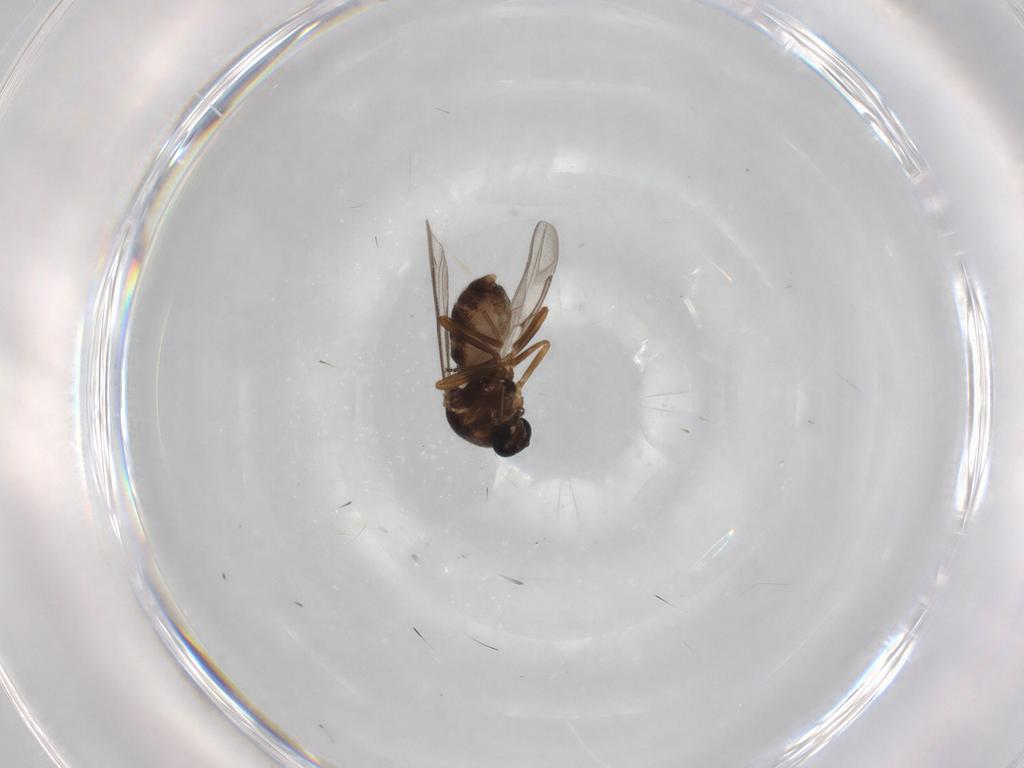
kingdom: Animalia
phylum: Arthropoda
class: Insecta
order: Diptera
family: Ceratopogonidae
